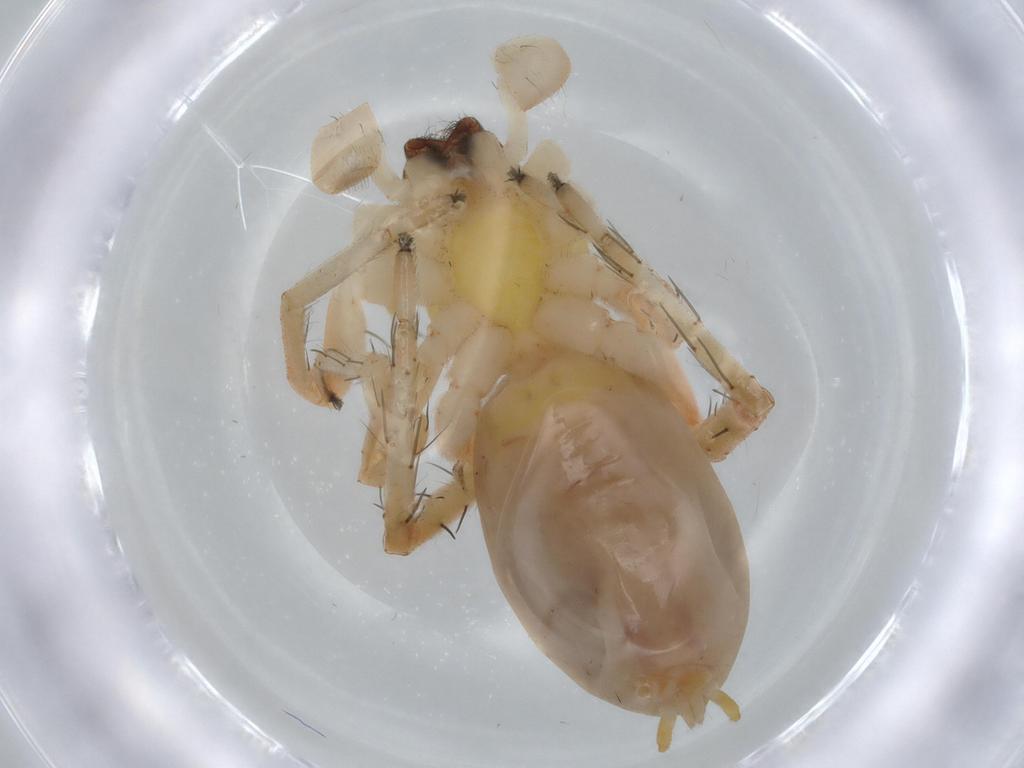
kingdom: Animalia
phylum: Arthropoda
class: Arachnida
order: Araneae
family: Anyphaenidae
